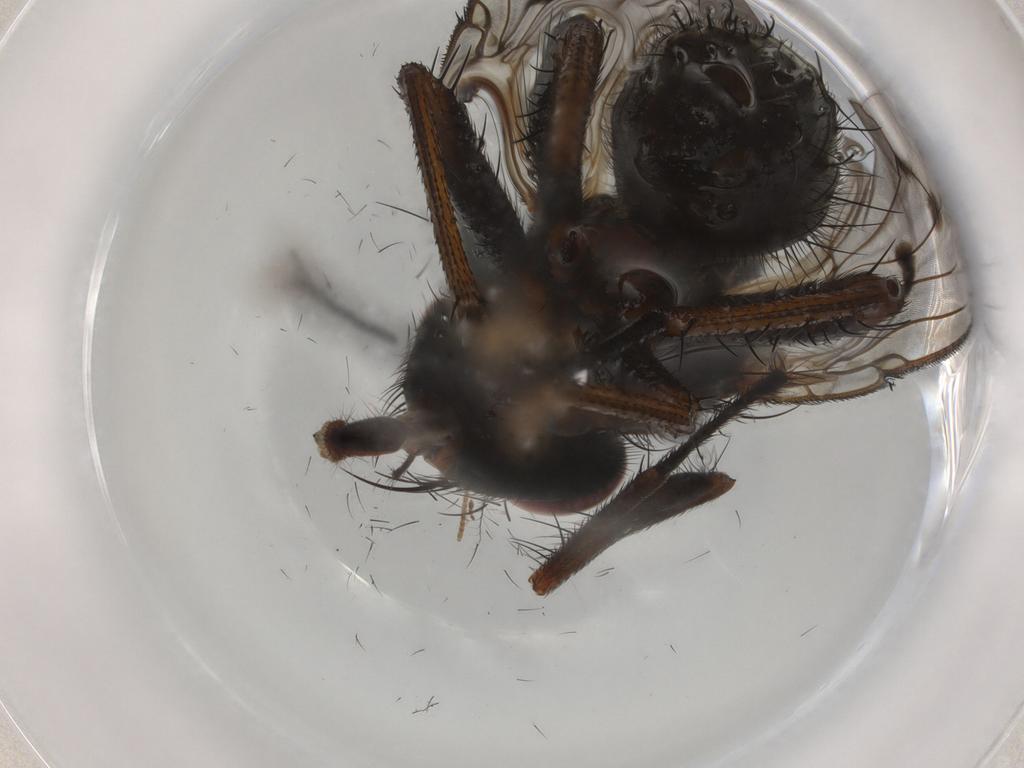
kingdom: Animalia
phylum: Arthropoda
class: Insecta
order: Diptera
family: Muscidae
